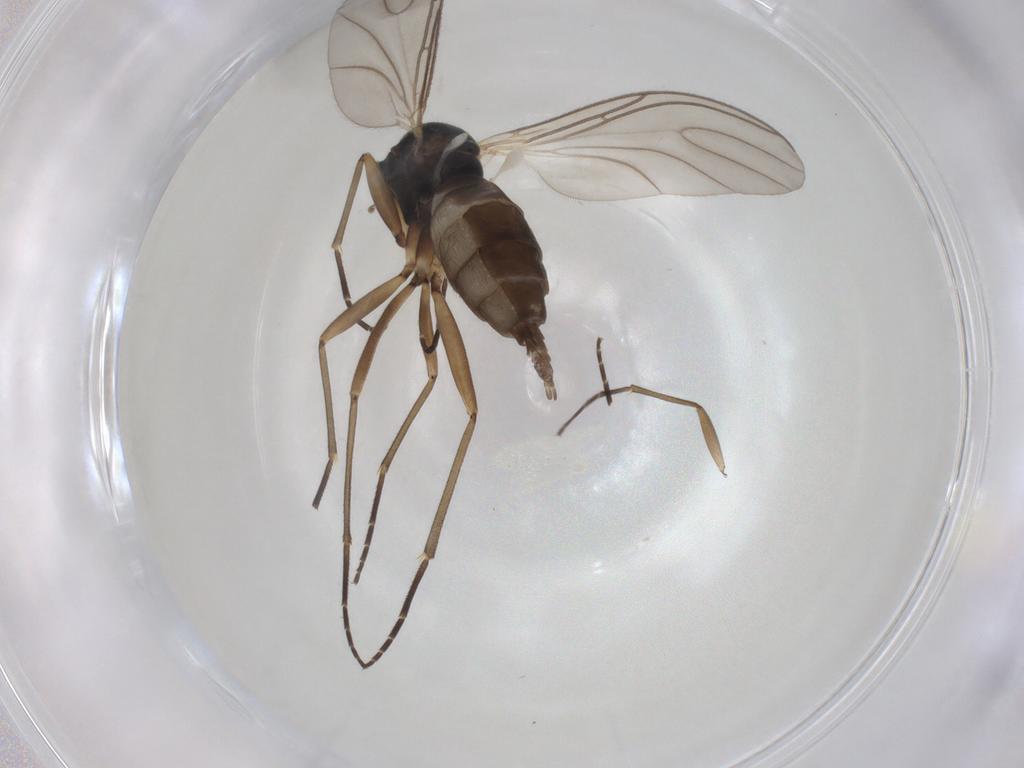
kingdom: Animalia
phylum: Arthropoda
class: Insecta
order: Diptera
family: Sciaridae
